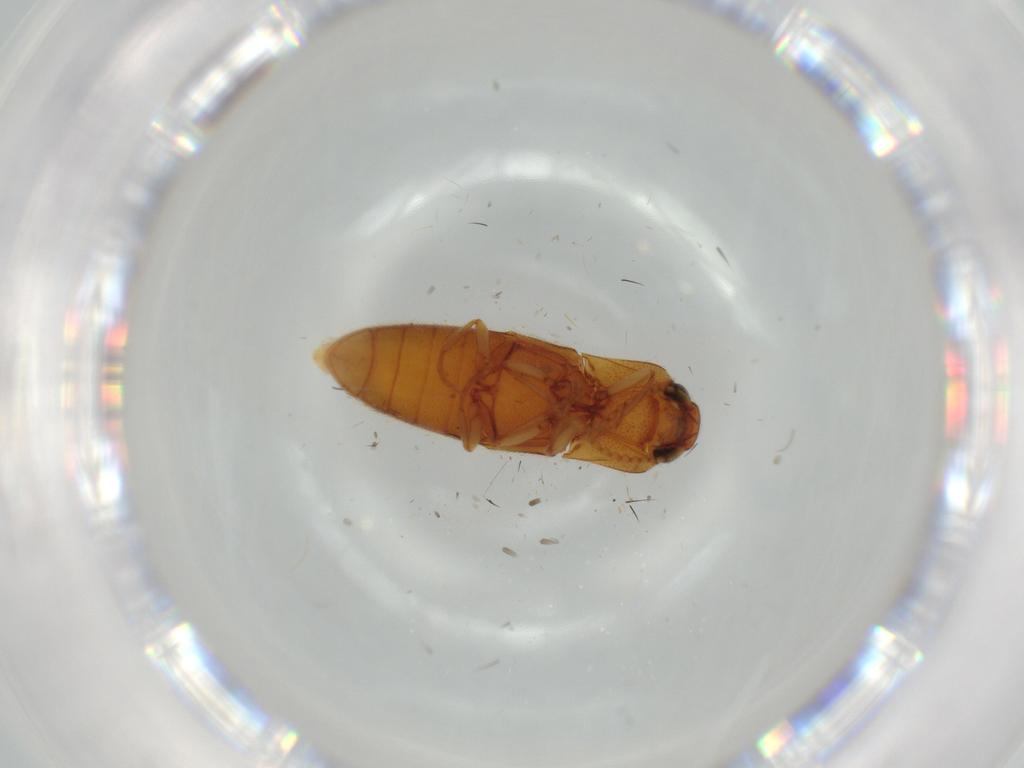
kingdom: Animalia
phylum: Arthropoda
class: Insecta
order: Coleoptera
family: Elateridae
